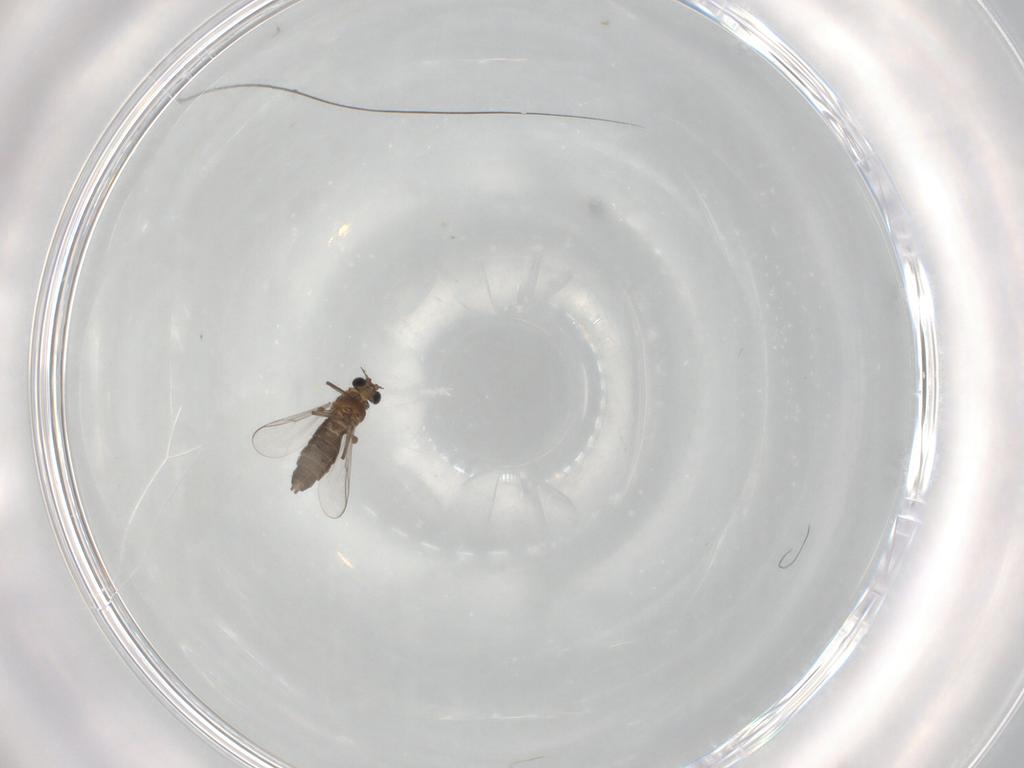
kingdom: Animalia
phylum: Arthropoda
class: Insecta
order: Diptera
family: Chironomidae
